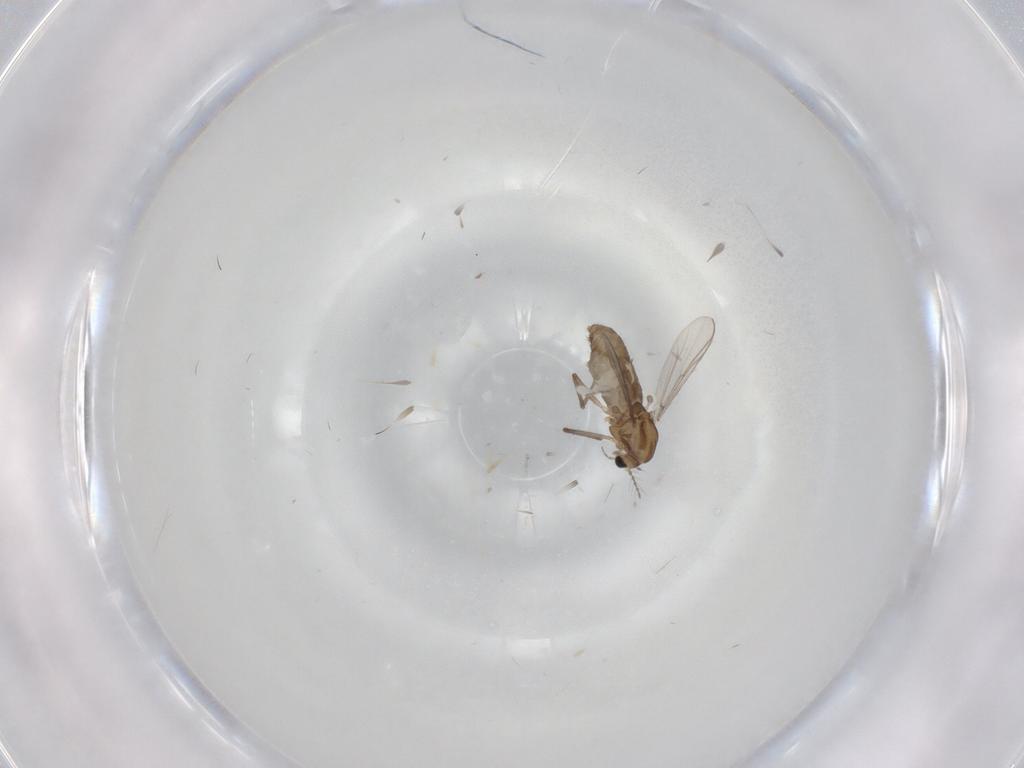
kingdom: Animalia
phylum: Arthropoda
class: Insecta
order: Diptera
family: Chironomidae
